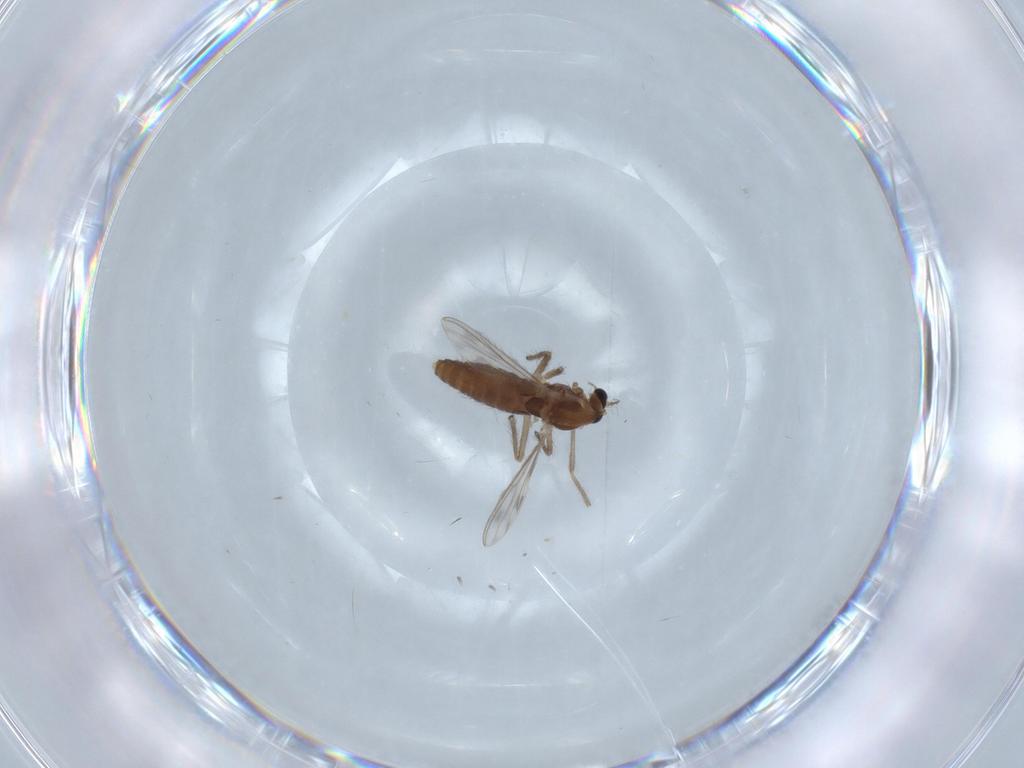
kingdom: Animalia
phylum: Arthropoda
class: Insecta
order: Diptera
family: Chironomidae
